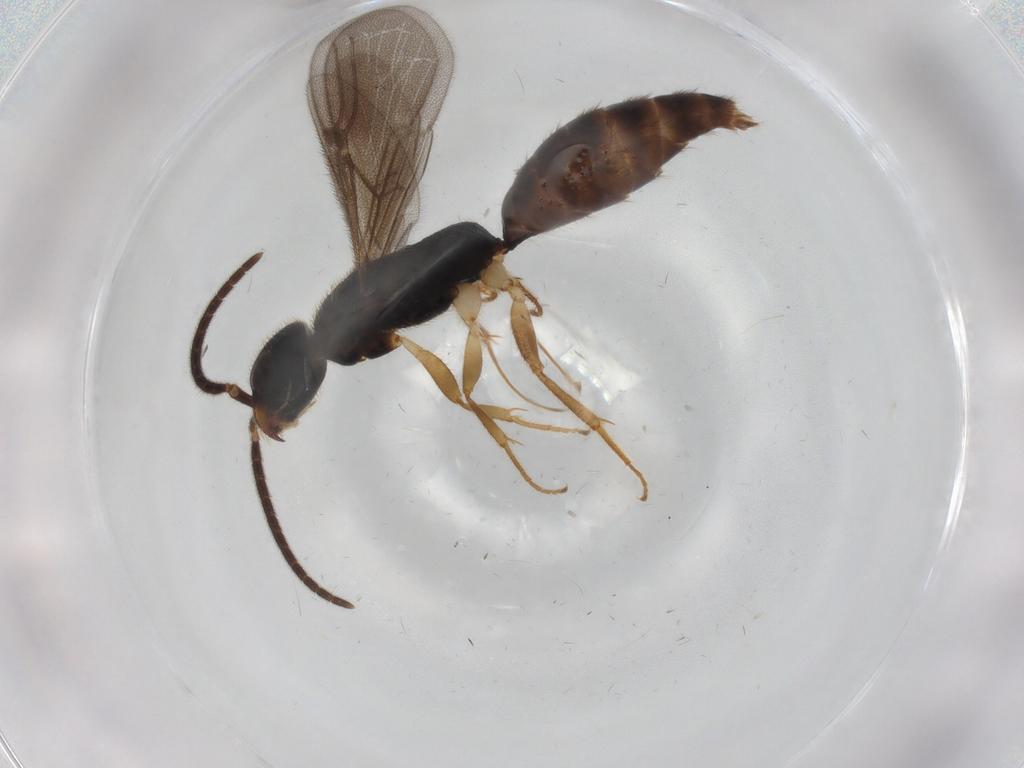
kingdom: Animalia
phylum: Arthropoda
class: Insecta
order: Hymenoptera
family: Bethylidae
